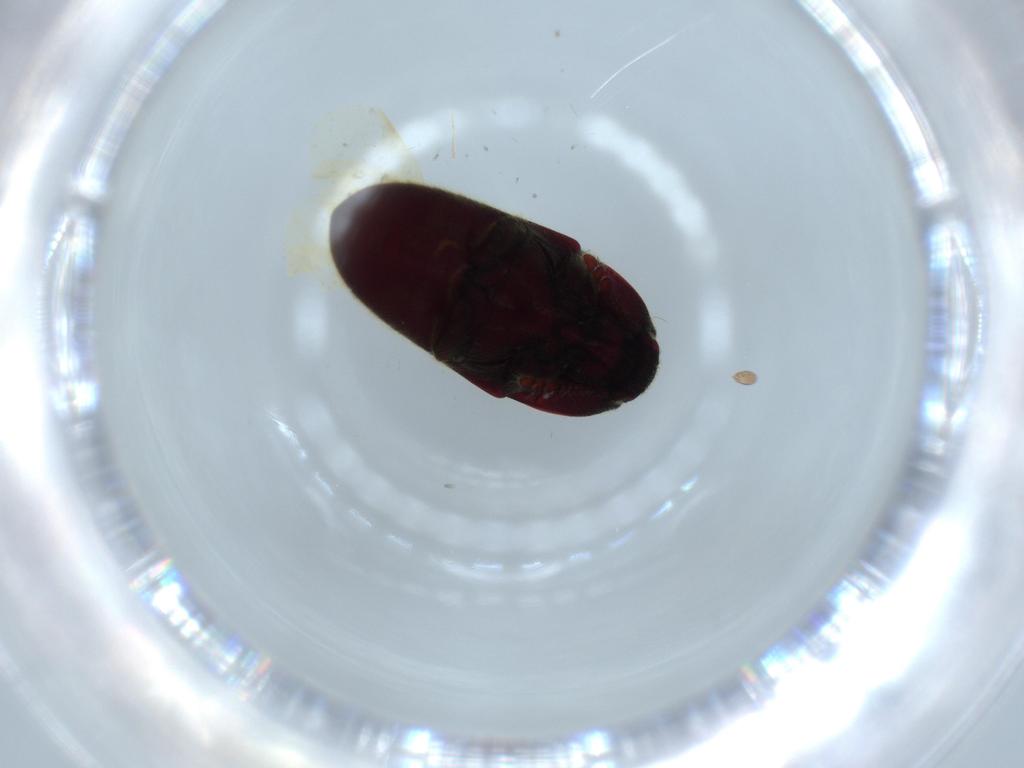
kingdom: Animalia
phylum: Arthropoda
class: Insecta
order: Coleoptera
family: Throscidae
